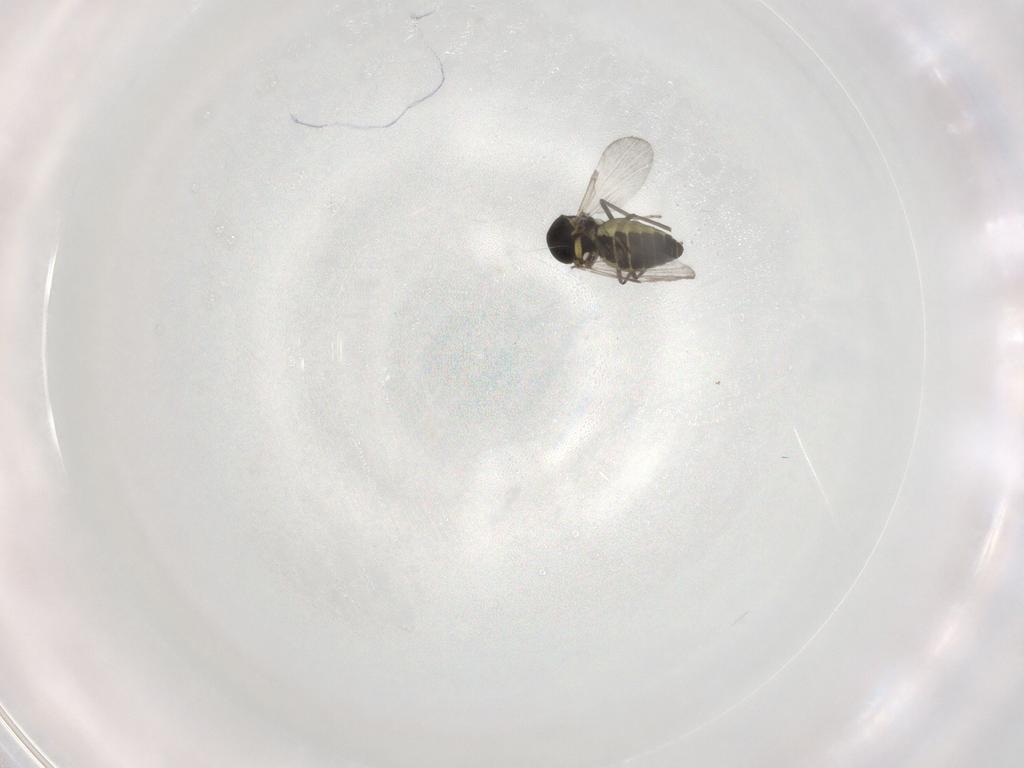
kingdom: Animalia
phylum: Arthropoda
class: Insecta
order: Diptera
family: Ceratopogonidae
